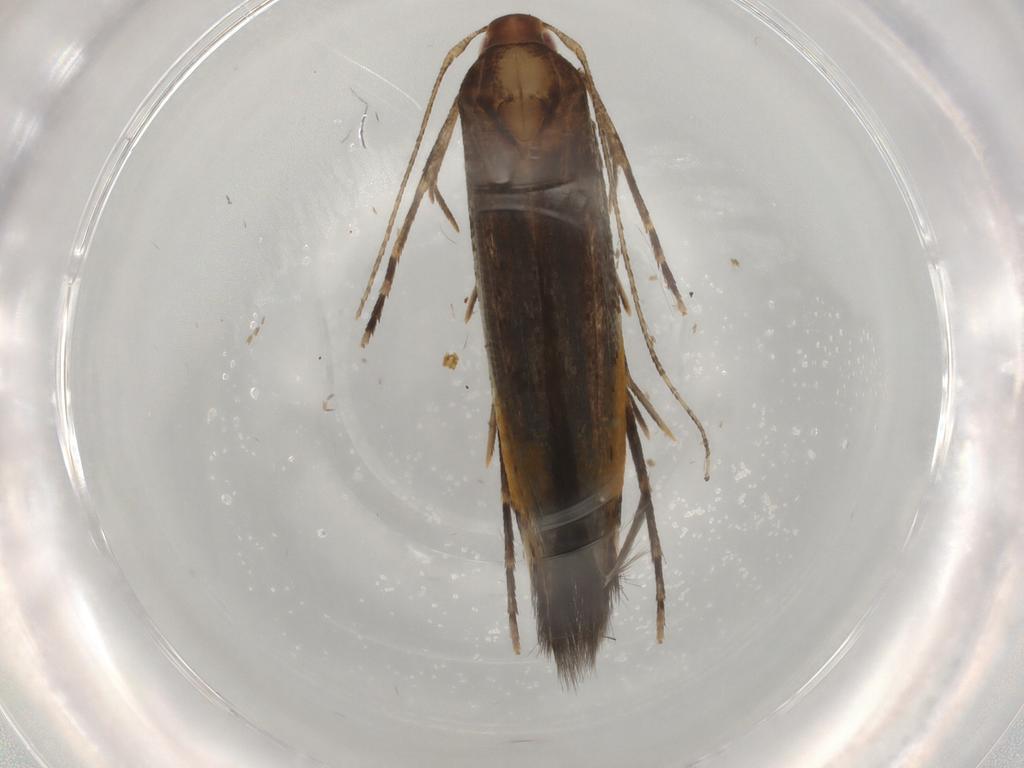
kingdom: Animalia
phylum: Arthropoda
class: Insecta
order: Lepidoptera
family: Cosmopterigidae
